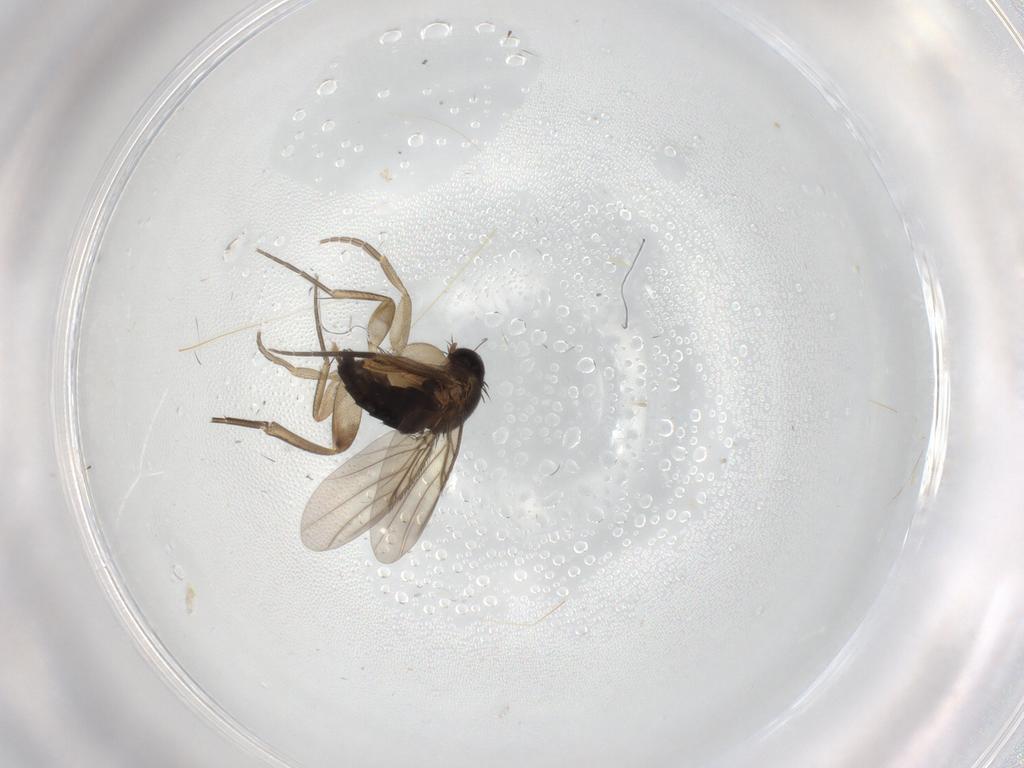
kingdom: Animalia
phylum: Arthropoda
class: Insecta
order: Diptera
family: Phoridae
